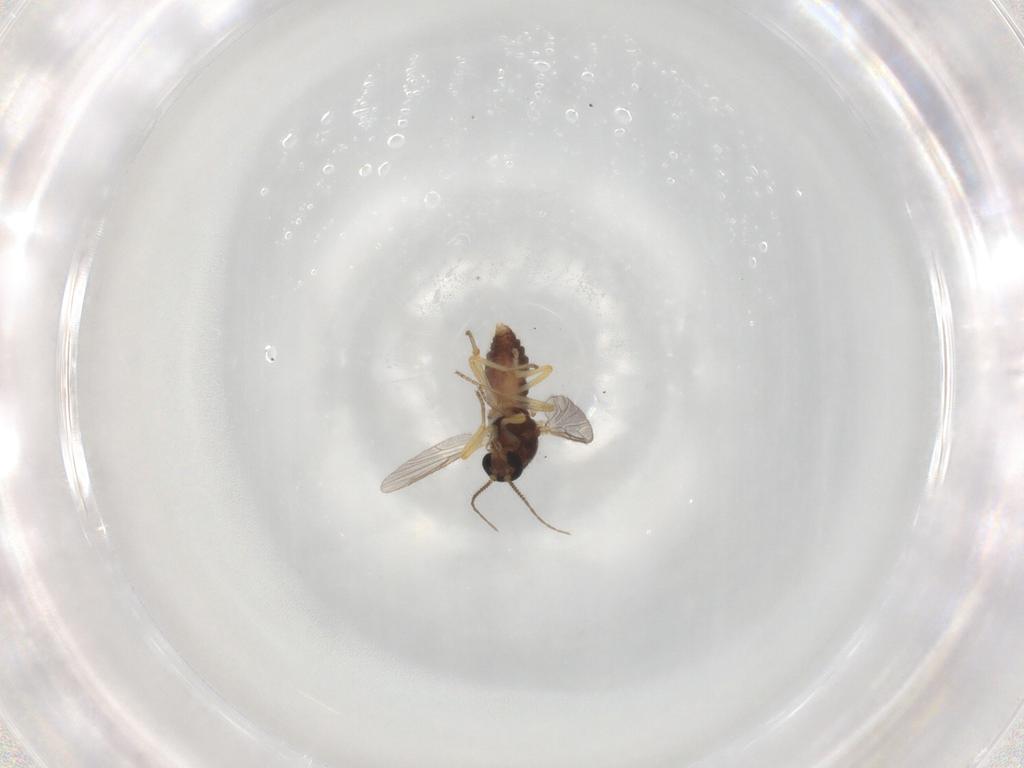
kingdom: Animalia
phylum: Arthropoda
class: Insecta
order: Diptera
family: Ceratopogonidae
